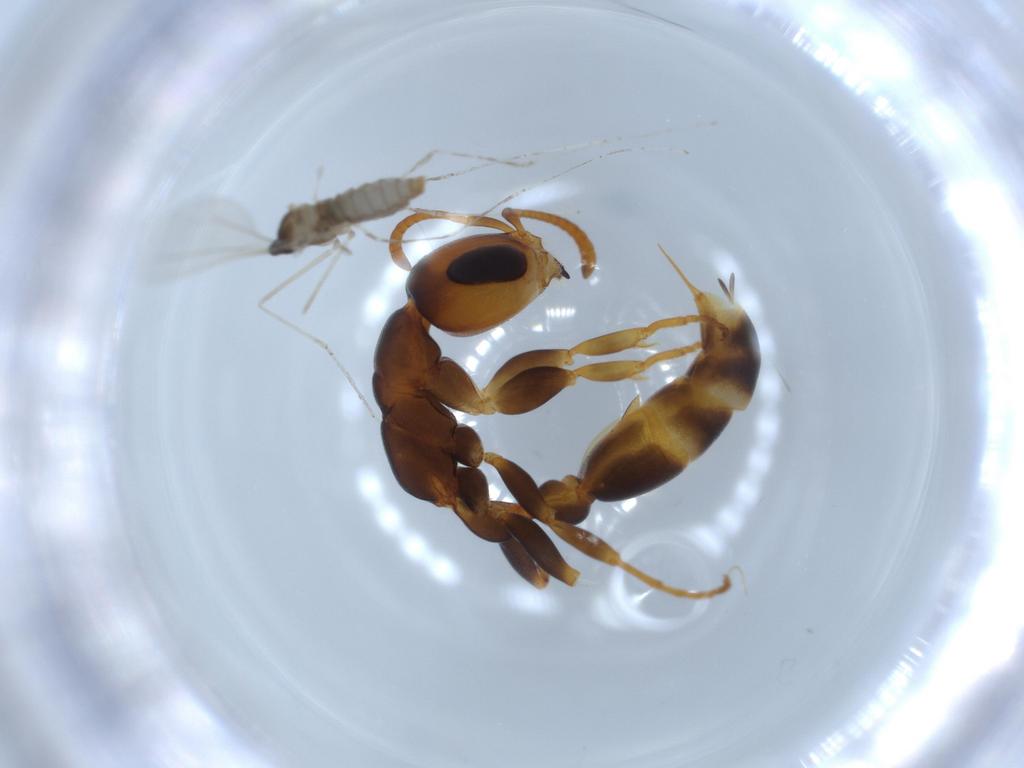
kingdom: Animalia
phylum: Arthropoda
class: Insecta
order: Hymenoptera
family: Formicidae
